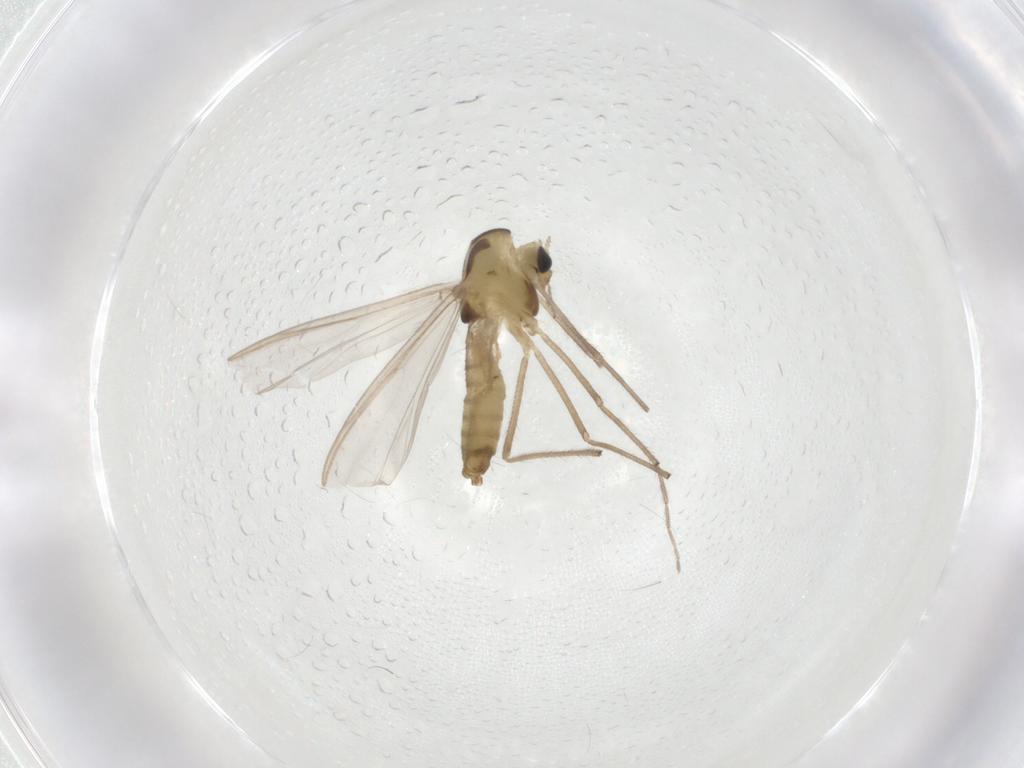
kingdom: Animalia
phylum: Arthropoda
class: Insecta
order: Diptera
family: Chironomidae
